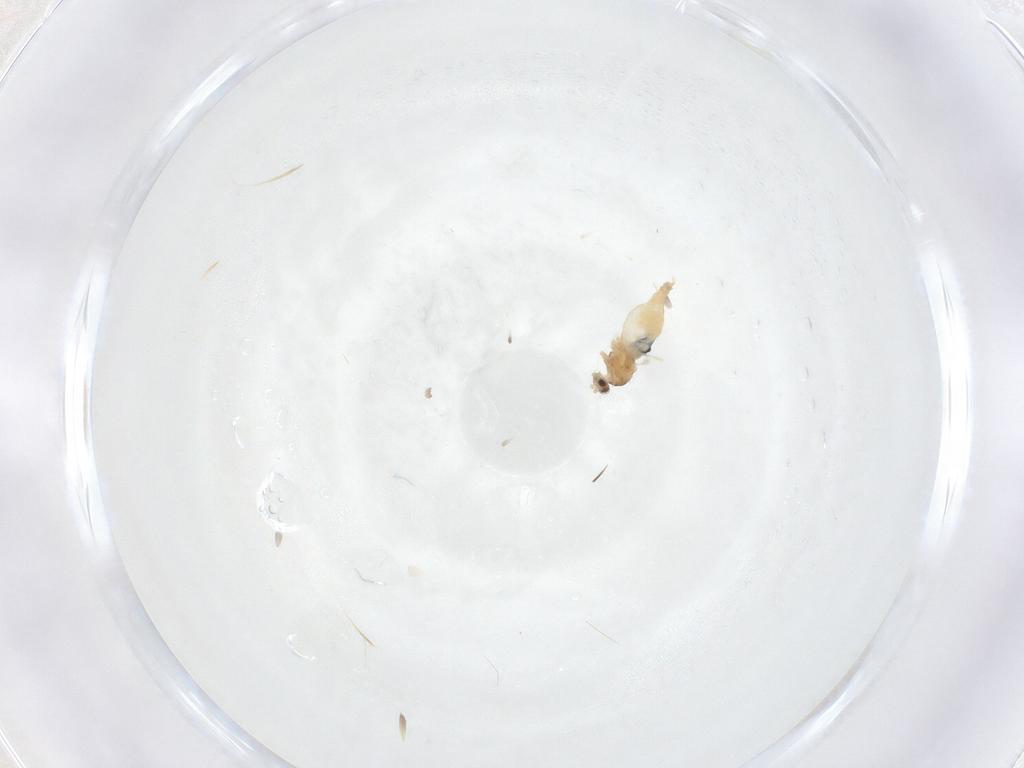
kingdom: Animalia
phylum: Arthropoda
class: Insecta
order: Diptera
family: Cecidomyiidae
